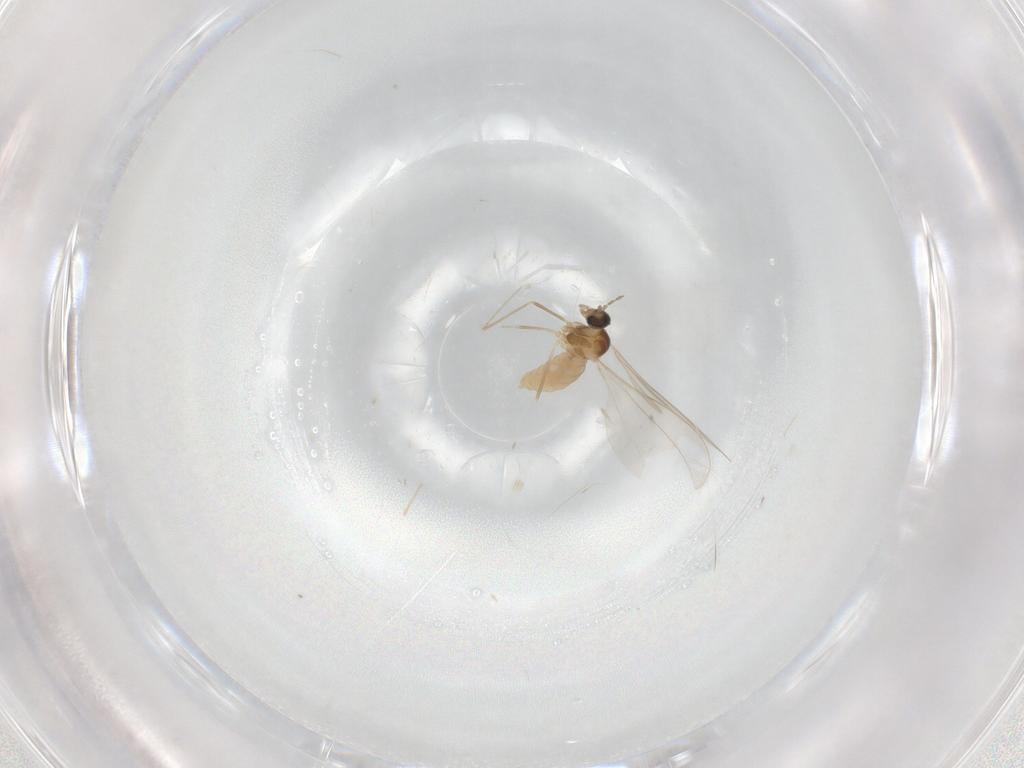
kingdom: Animalia
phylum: Arthropoda
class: Insecta
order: Diptera
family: Cecidomyiidae
